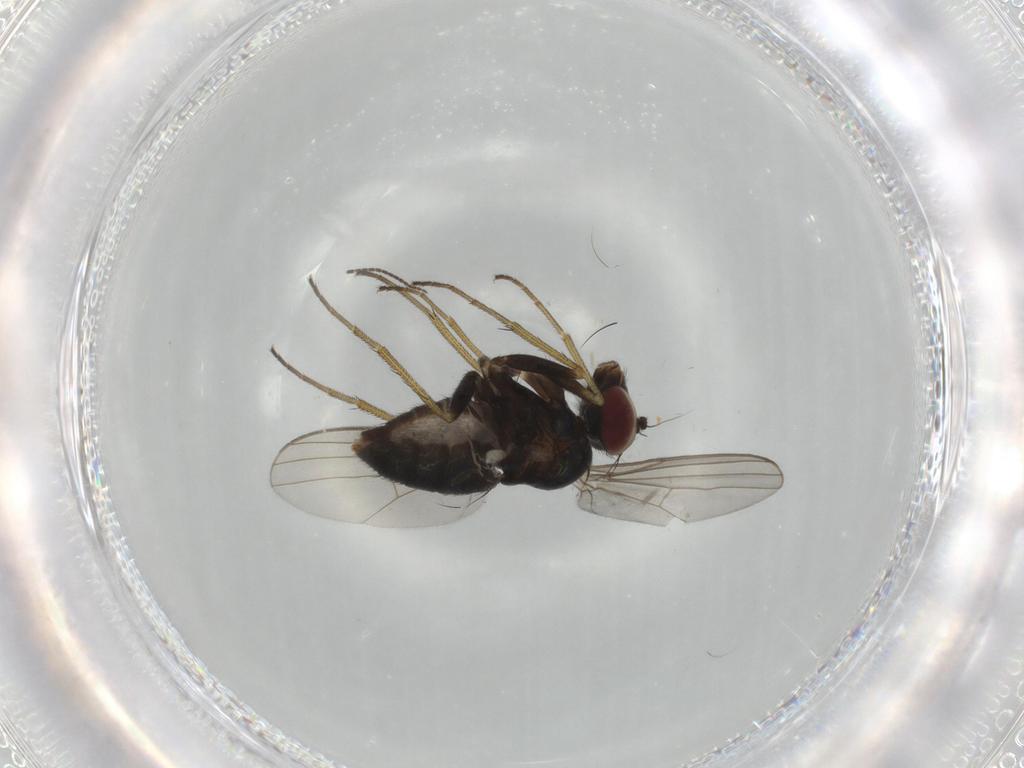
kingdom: Animalia
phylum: Arthropoda
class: Insecta
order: Diptera
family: Dolichopodidae
